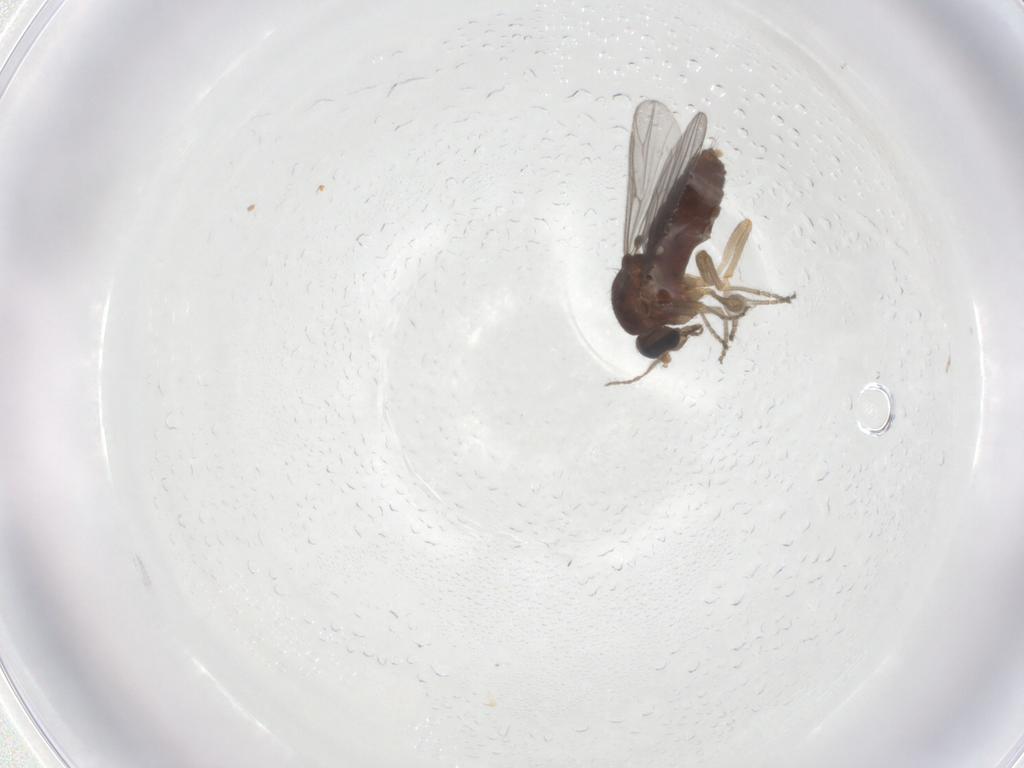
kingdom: Animalia
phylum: Arthropoda
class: Insecta
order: Diptera
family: Ceratopogonidae
